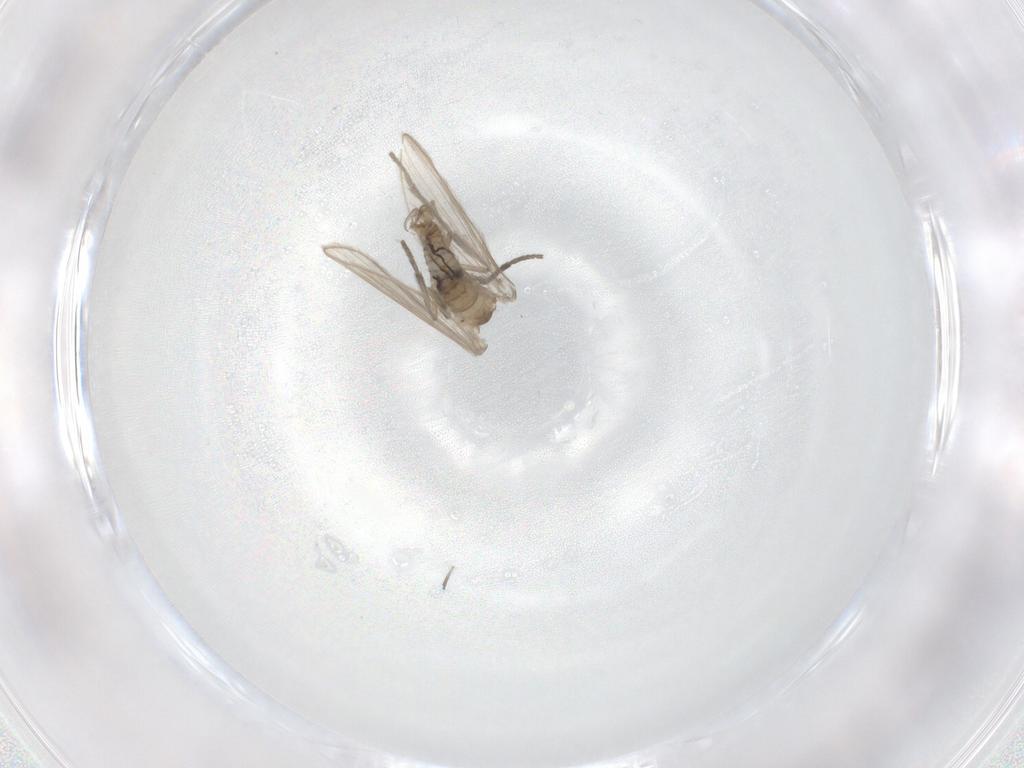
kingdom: Animalia
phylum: Arthropoda
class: Insecta
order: Diptera
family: Psychodidae
